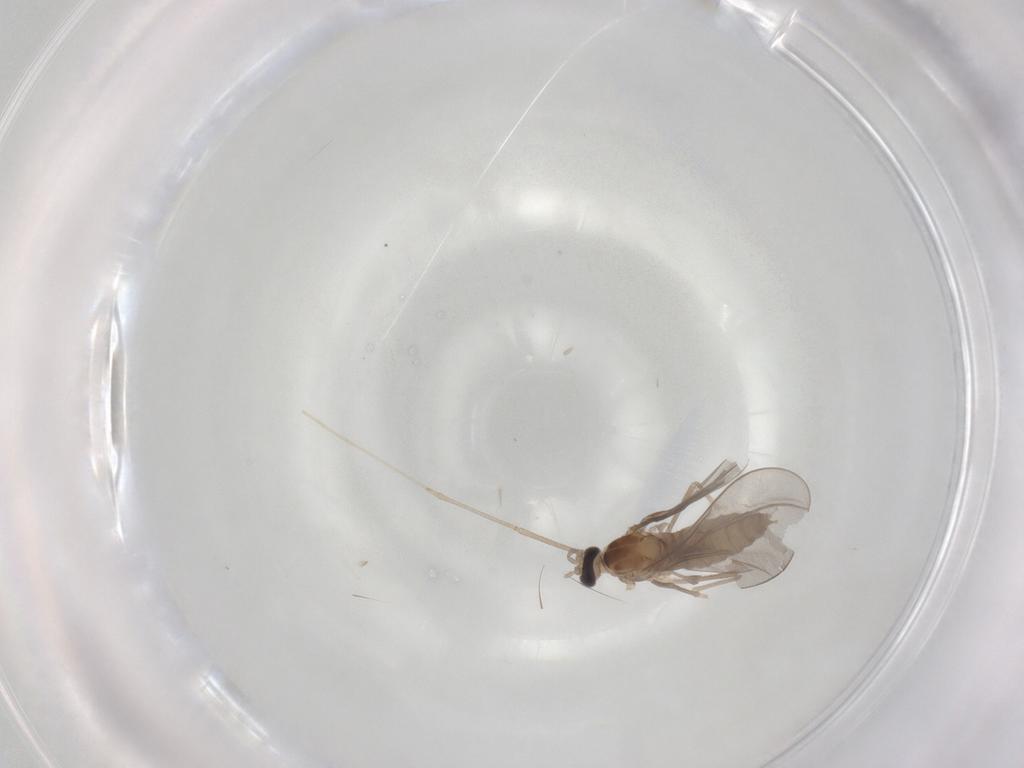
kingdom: Animalia
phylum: Arthropoda
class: Insecta
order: Diptera
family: Cecidomyiidae
